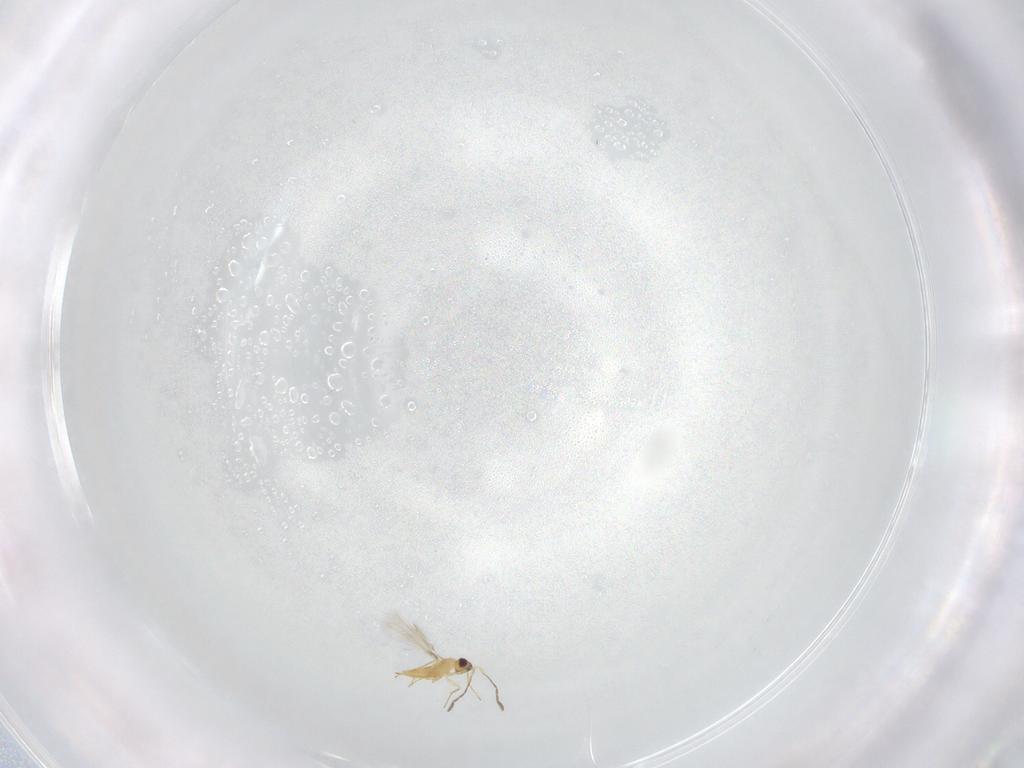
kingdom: Animalia
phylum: Arthropoda
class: Insecta
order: Hymenoptera
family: Mymaridae
